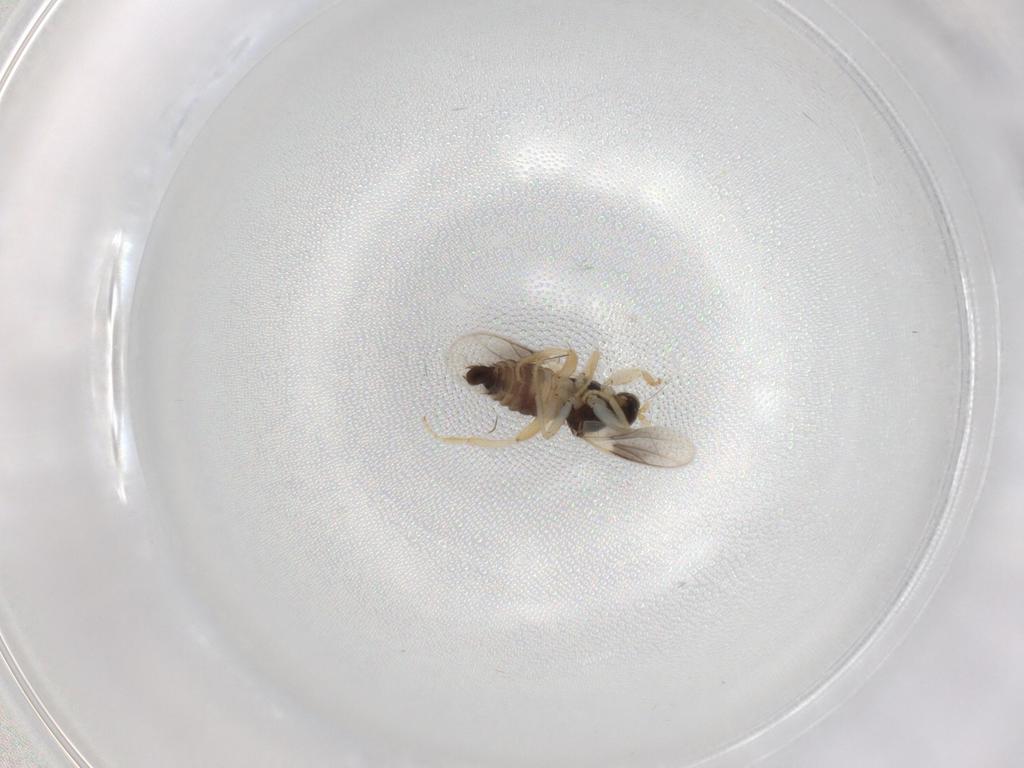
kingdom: Animalia
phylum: Arthropoda
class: Insecta
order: Diptera
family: Hybotidae
